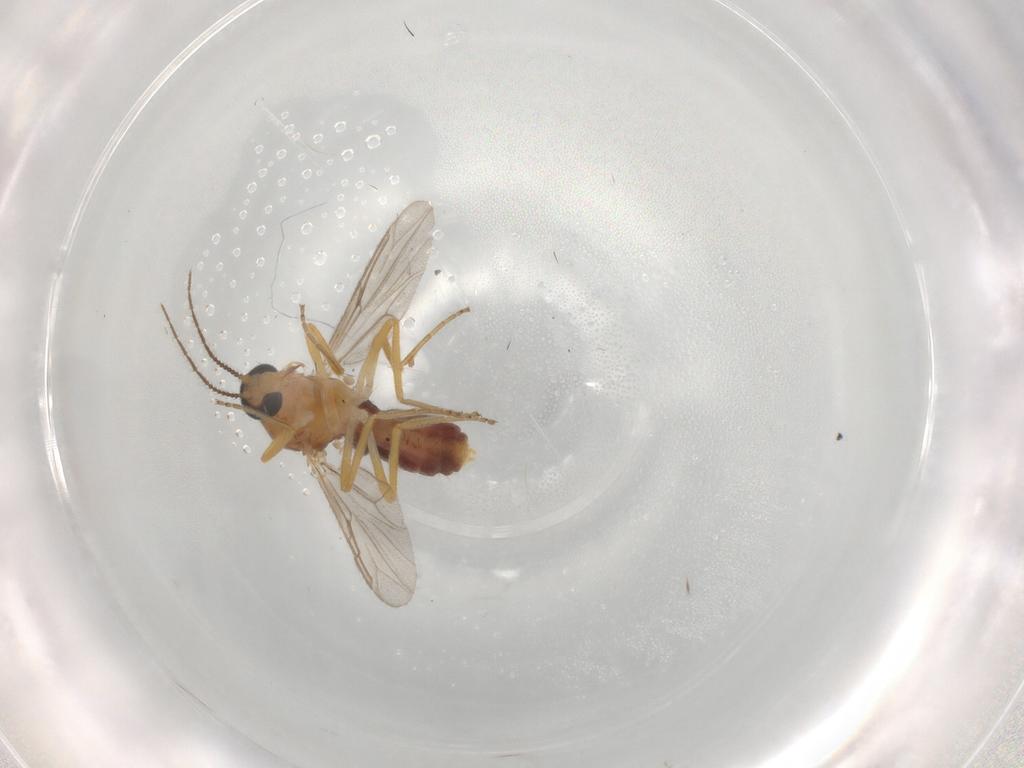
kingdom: Animalia
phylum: Arthropoda
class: Insecta
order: Diptera
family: Ceratopogonidae
